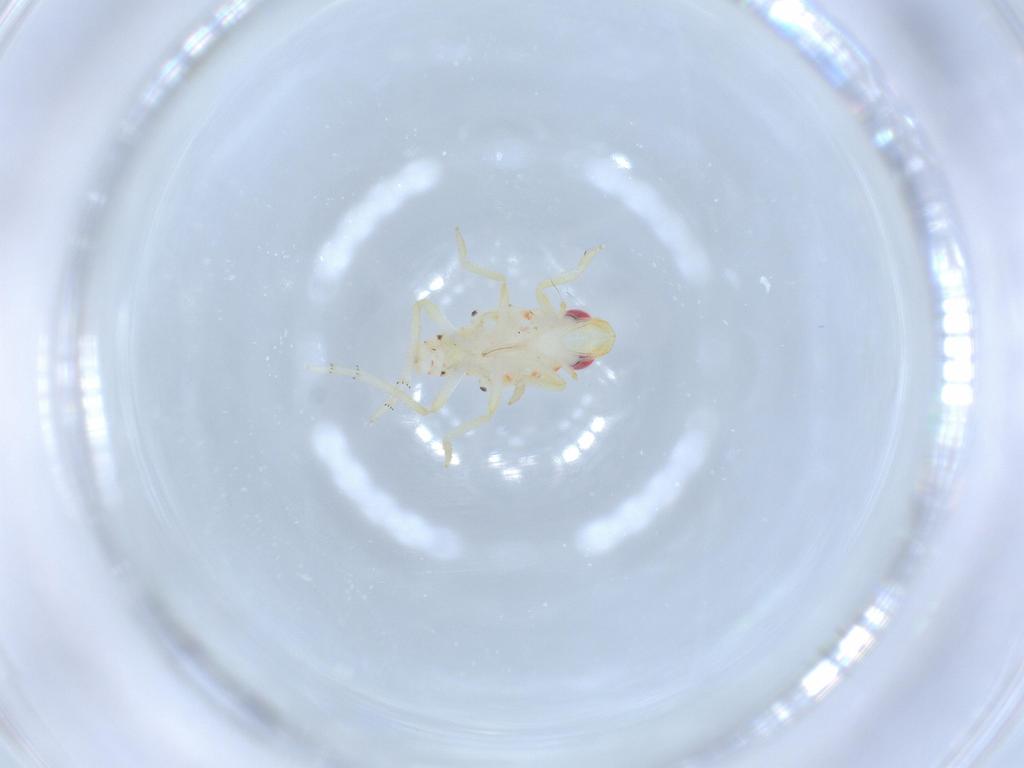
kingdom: Animalia
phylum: Arthropoda
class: Insecta
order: Hemiptera
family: Tropiduchidae
